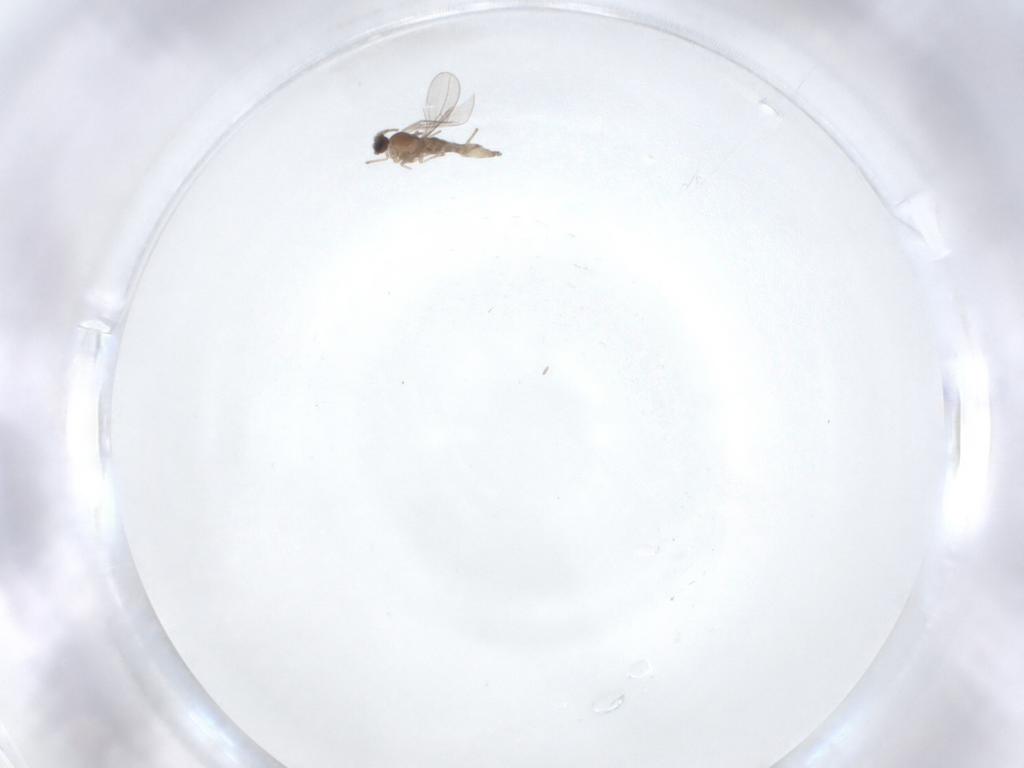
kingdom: Animalia
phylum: Arthropoda
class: Insecta
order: Diptera
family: Cecidomyiidae
